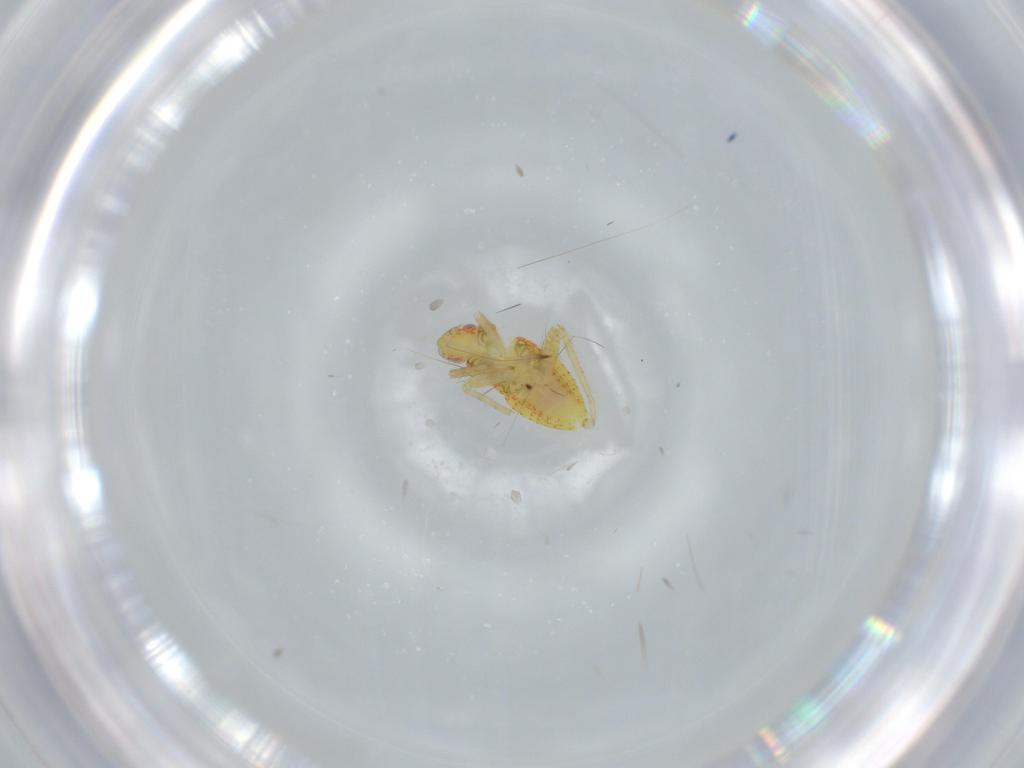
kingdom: Animalia
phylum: Arthropoda
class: Insecta
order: Hemiptera
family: Miridae
